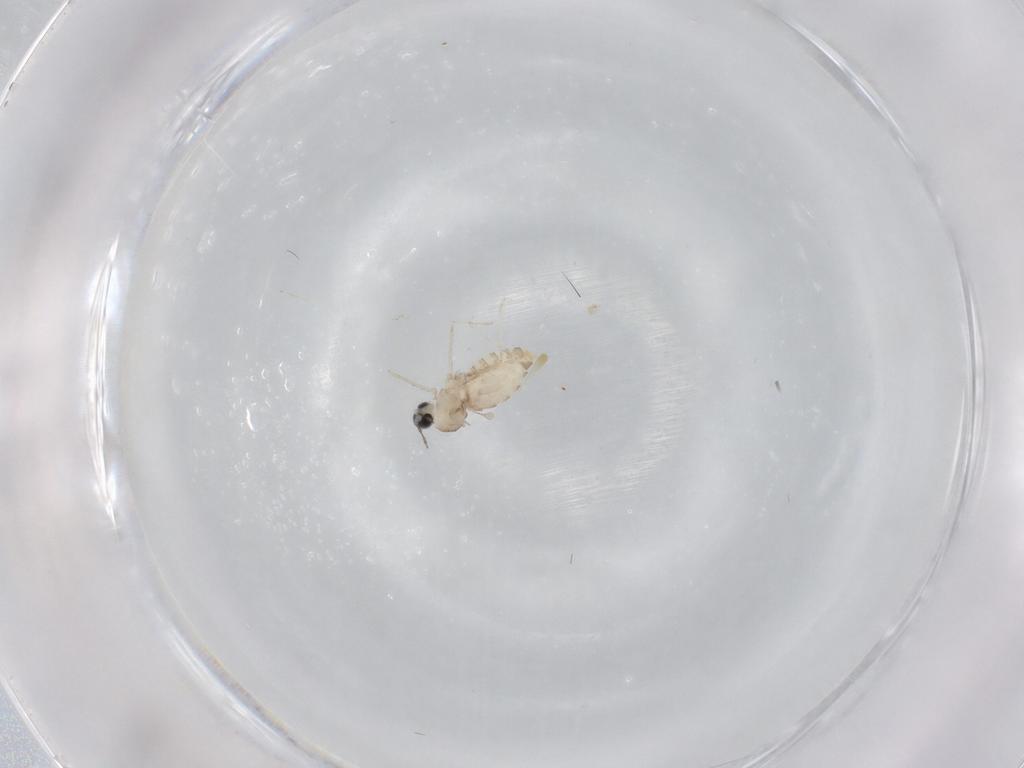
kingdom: Animalia
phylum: Arthropoda
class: Insecta
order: Diptera
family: Cecidomyiidae
